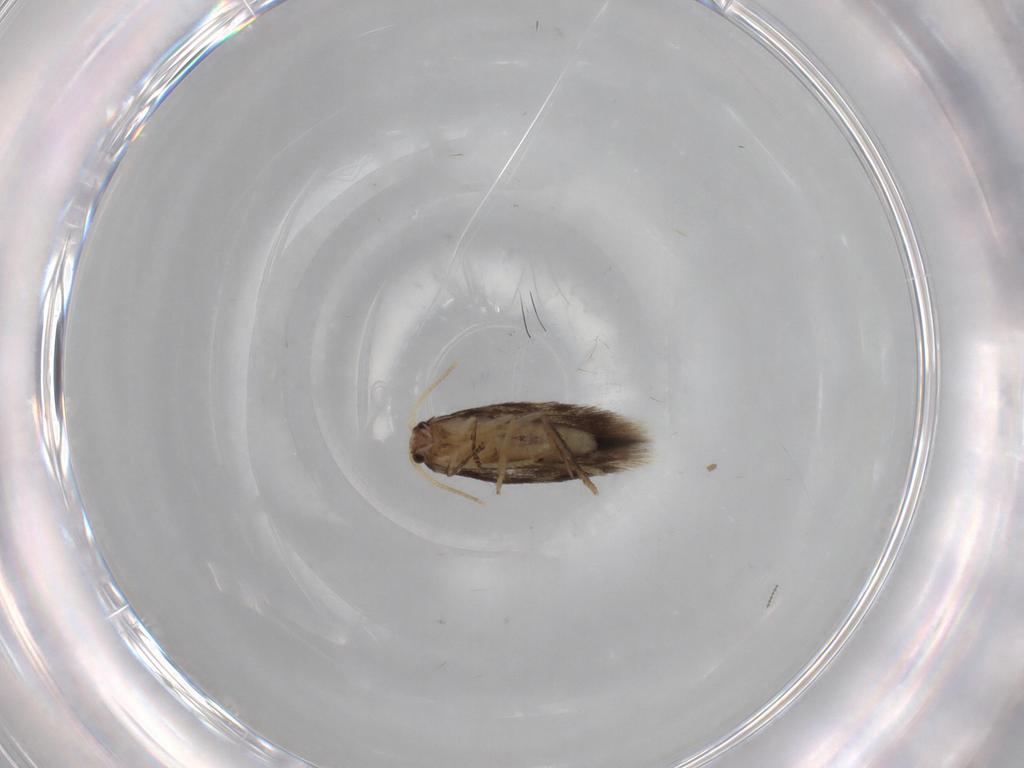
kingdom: Animalia
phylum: Arthropoda
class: Insecta
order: Lepidoptera
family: Nepticulidae
